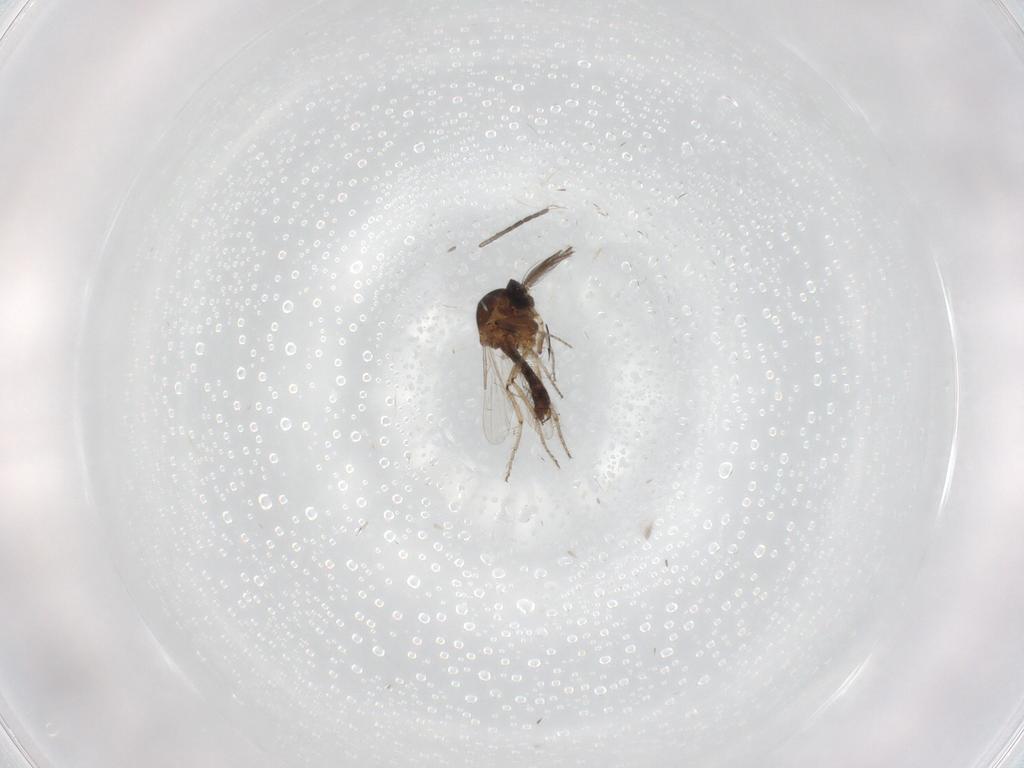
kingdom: Animalia
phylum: Arthropoda
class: Insecta
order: Diptera
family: Ceratopogonidae
